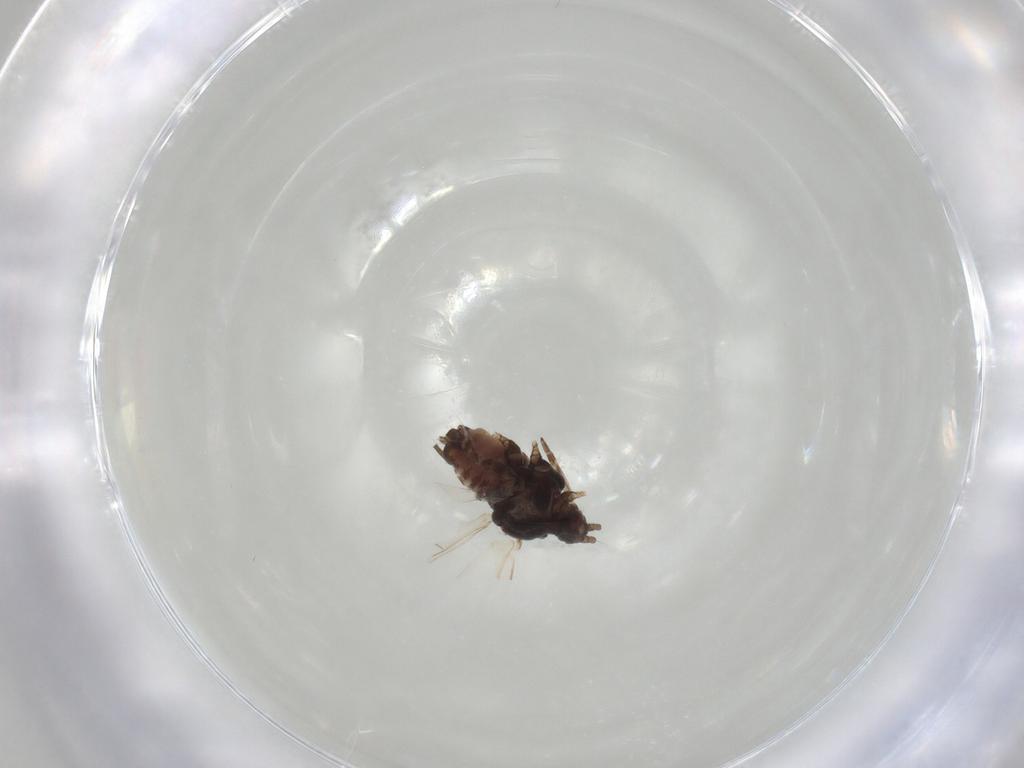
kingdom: Animalia
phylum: Arthropoda
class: Insecta
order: Hemiptera
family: Aphididae
